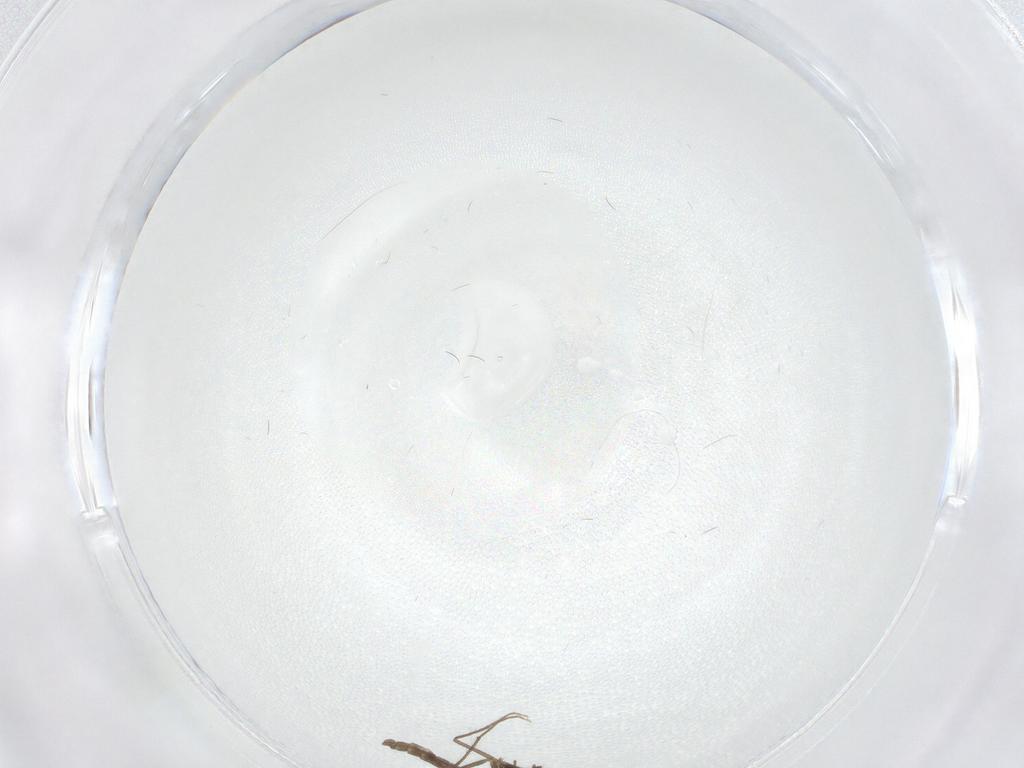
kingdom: Animalia
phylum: Arthropoda
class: Insecta
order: Diptera
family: Chironomidae
